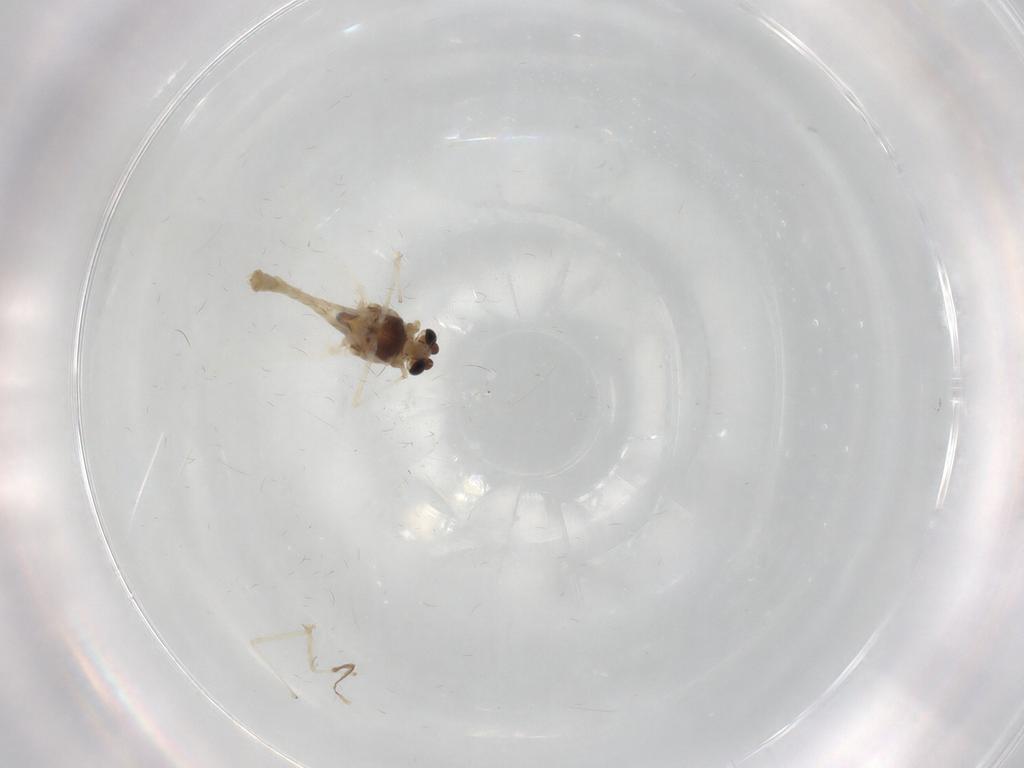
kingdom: Animalia
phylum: Arthropoda
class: Insecta
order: Diptera
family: Chironomidae
